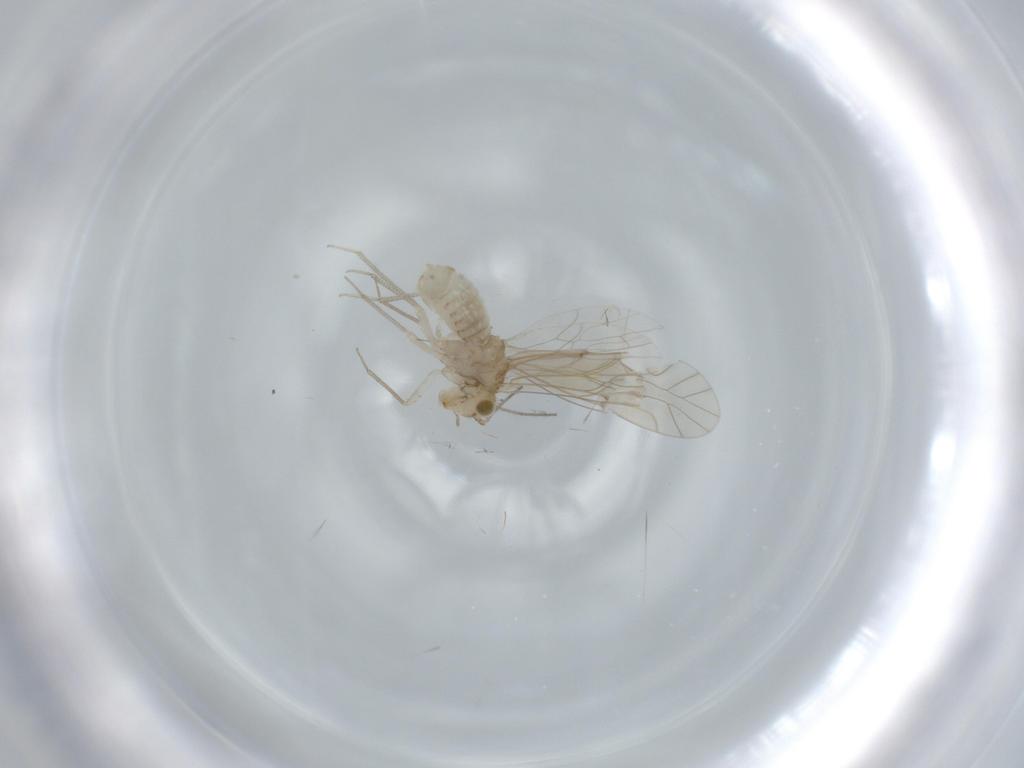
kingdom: Animalia
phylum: Arthropoda
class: Insecta
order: Psocodea
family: Lachesillidae
